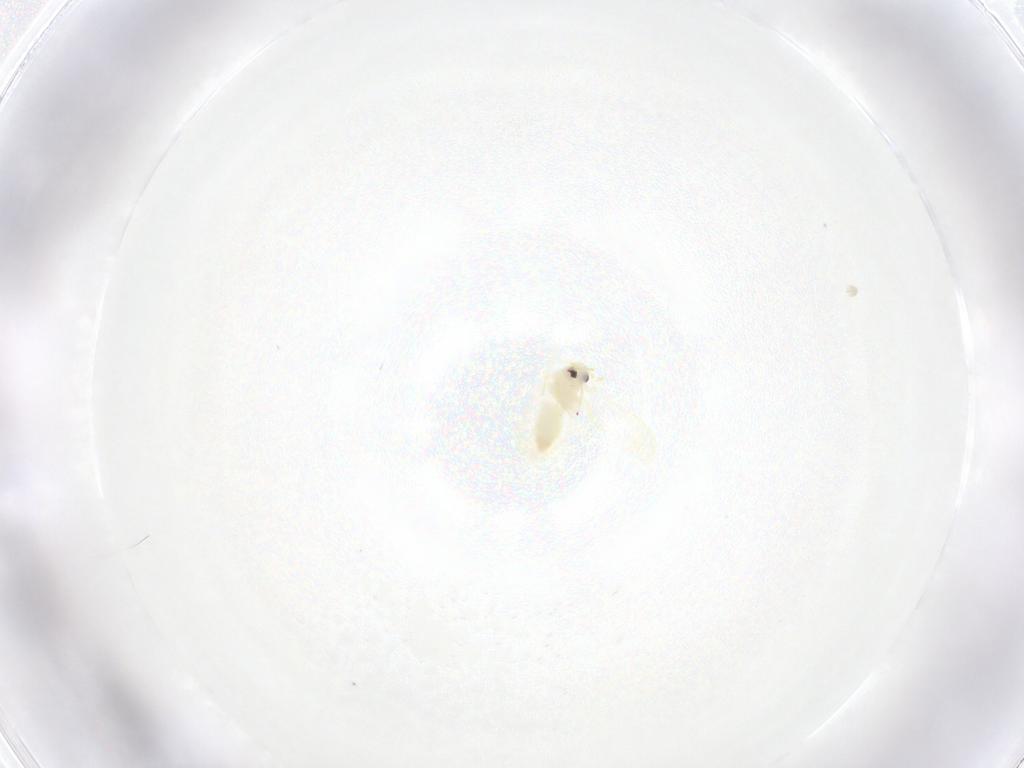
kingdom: Animalia
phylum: Arthropoda
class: Insecta
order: Hemiptera
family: Aleyrodidae
